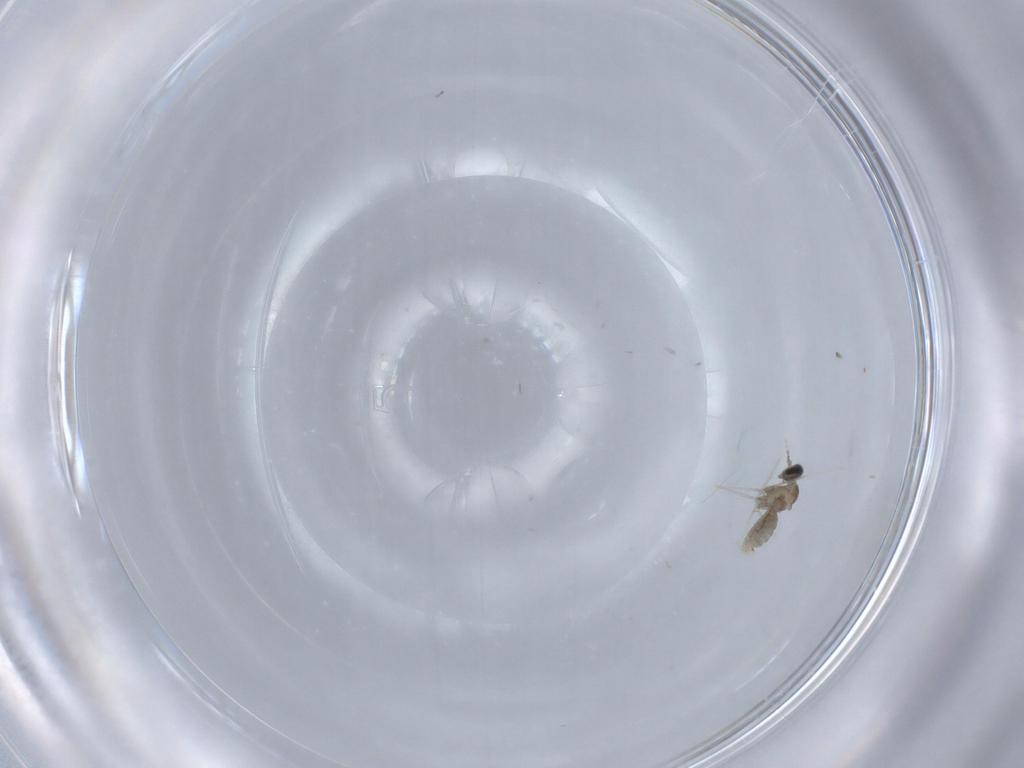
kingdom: Animalia
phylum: Arthropoda
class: Insecta
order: Diptera
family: Cecidomyiidae
